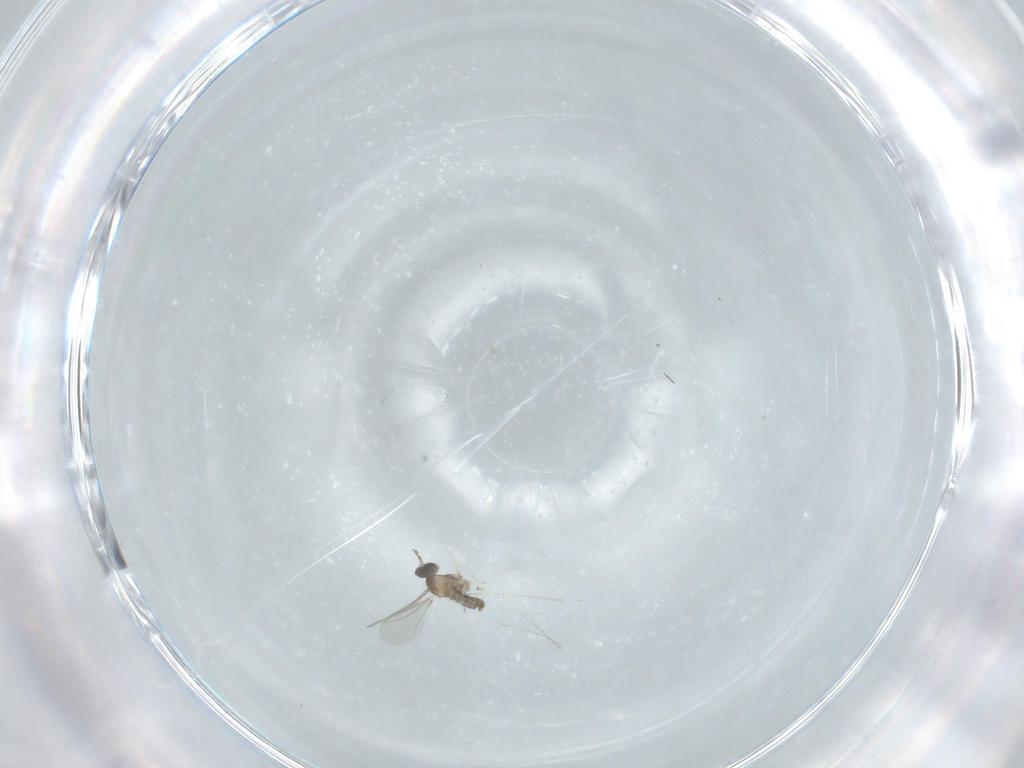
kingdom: Animalia
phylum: Arthropoda
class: Insecta
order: Diptera
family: Cecidomyiidae
